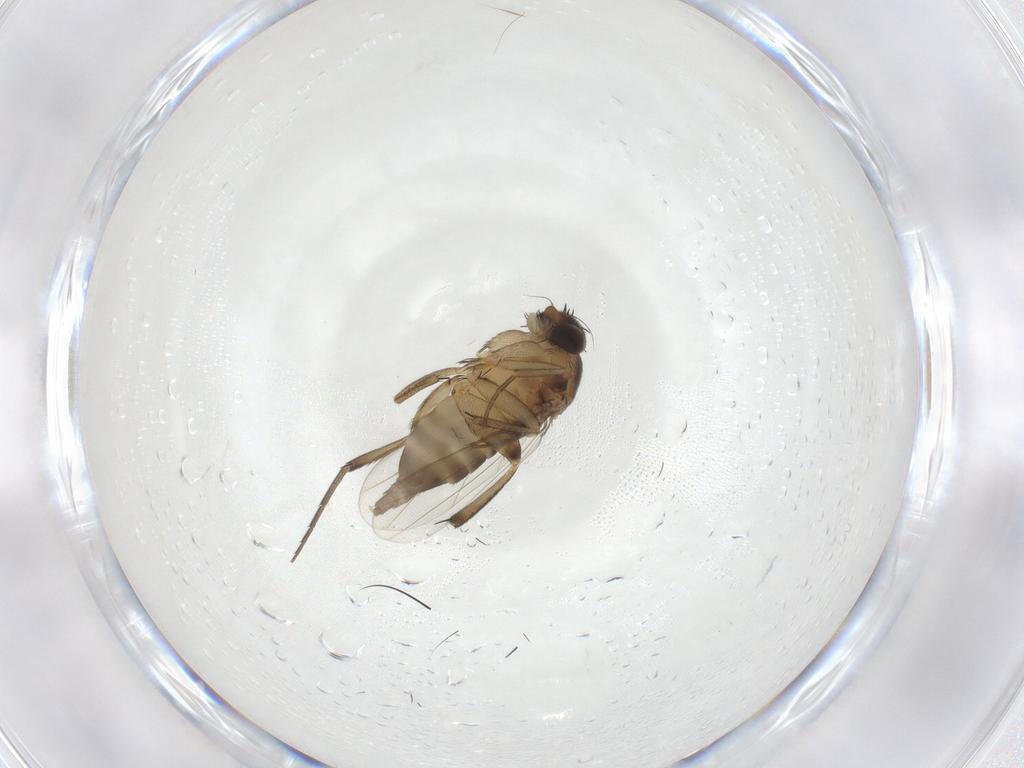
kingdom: Animalia
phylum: Arthropoda
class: Insecta
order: Diptera
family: Phoridae
